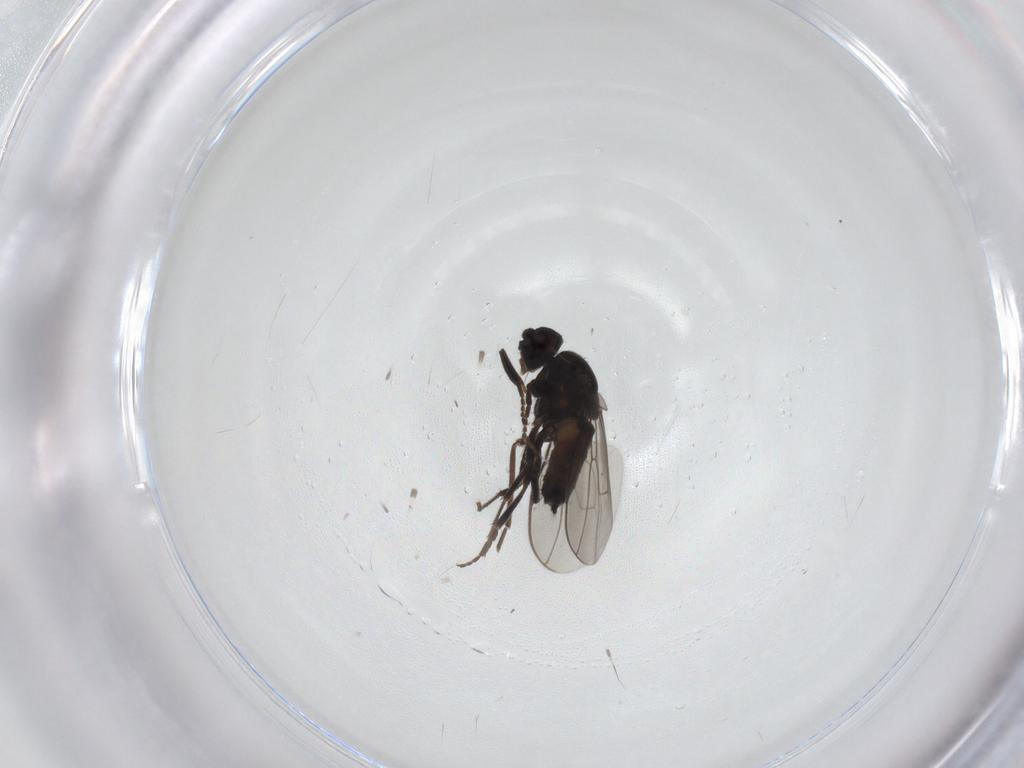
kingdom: Animalia
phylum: Arthropoda
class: Insecta
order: Diptera
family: Sphaeroceridae
